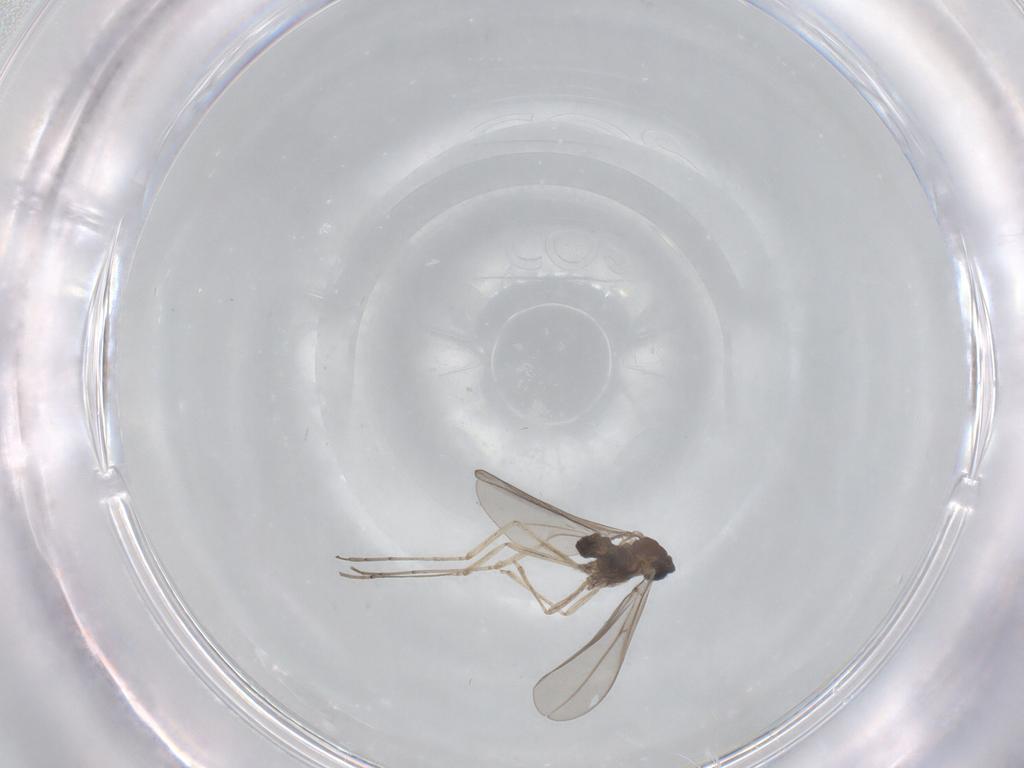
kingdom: Animalia
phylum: Arthropoda
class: Insecta
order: Diptera
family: Cecidomyiidae
